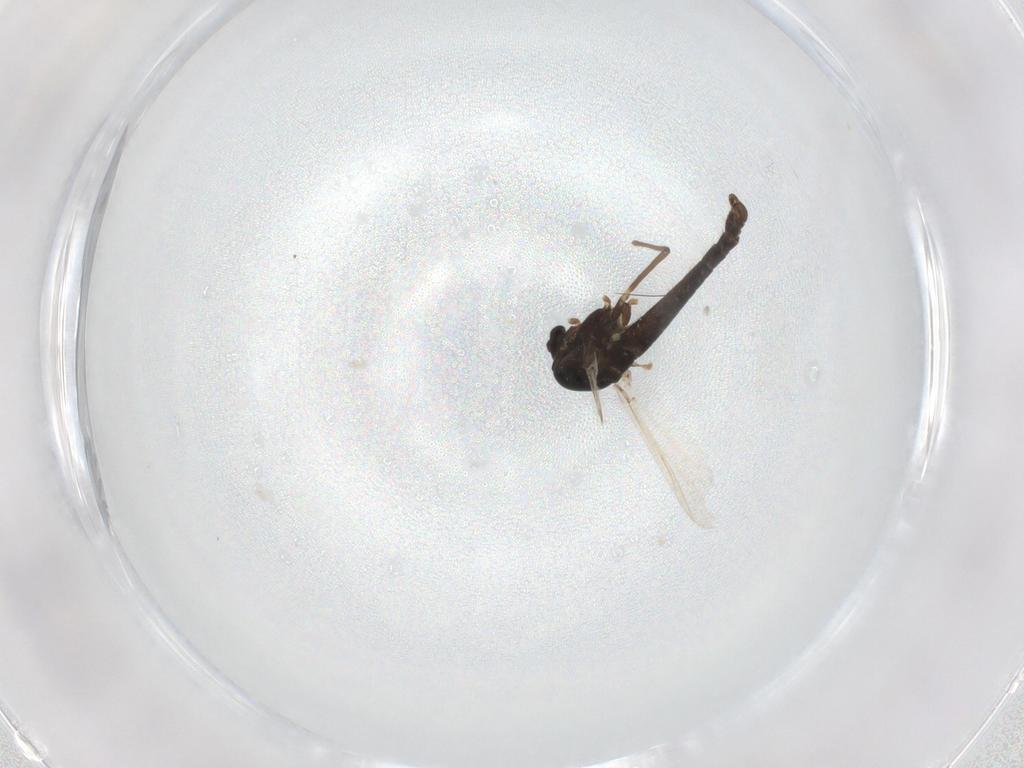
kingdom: Animalia
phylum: Arthropoda
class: Insecta
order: Diptera
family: Chironomidae
